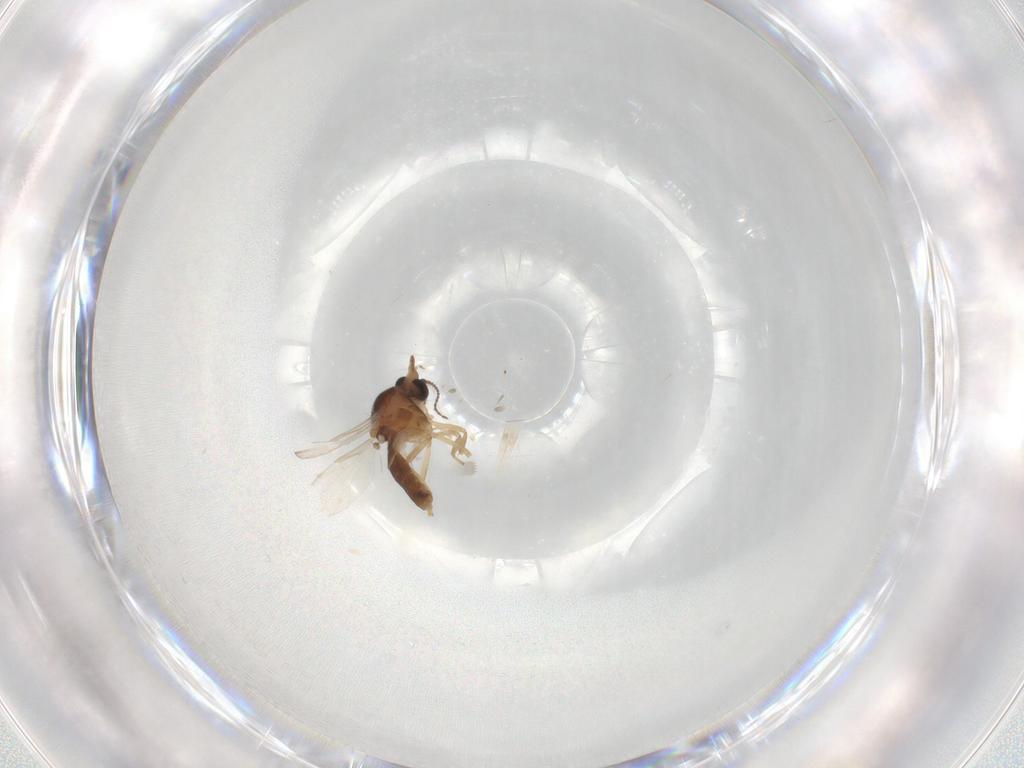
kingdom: Animalia
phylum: Arthropoda
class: Insecta
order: Diptera
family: Ceratopogonidae
